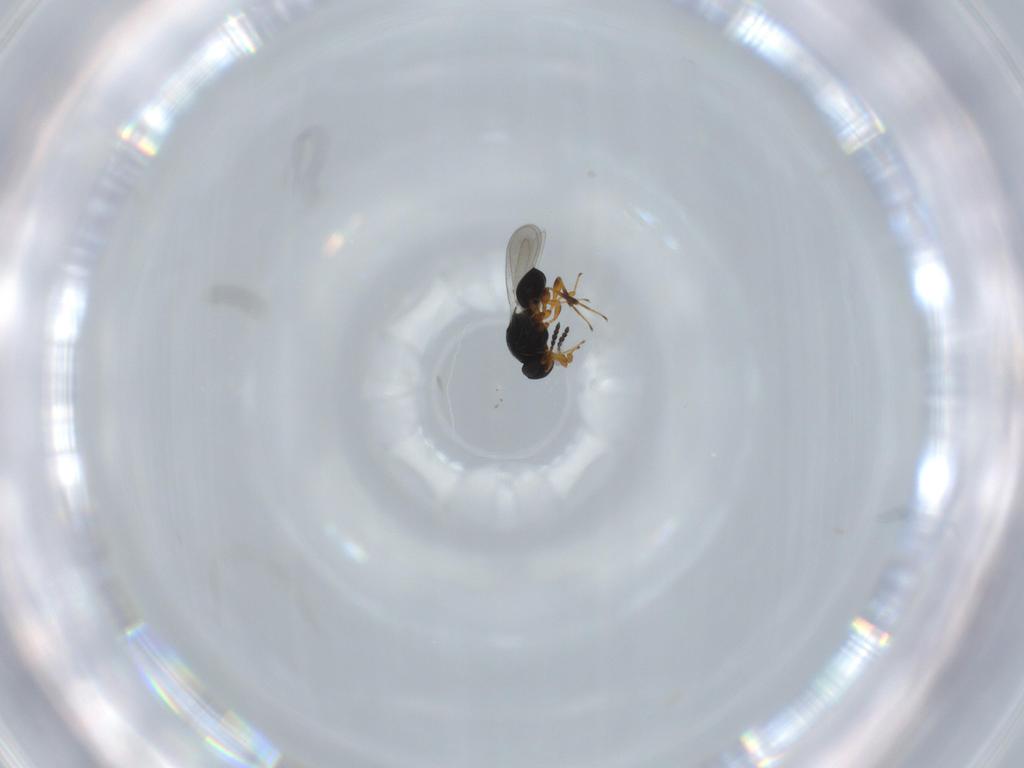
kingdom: Animalia
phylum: Arthropoda
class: Insecta
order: Hymenoptera
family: Platygastridae
